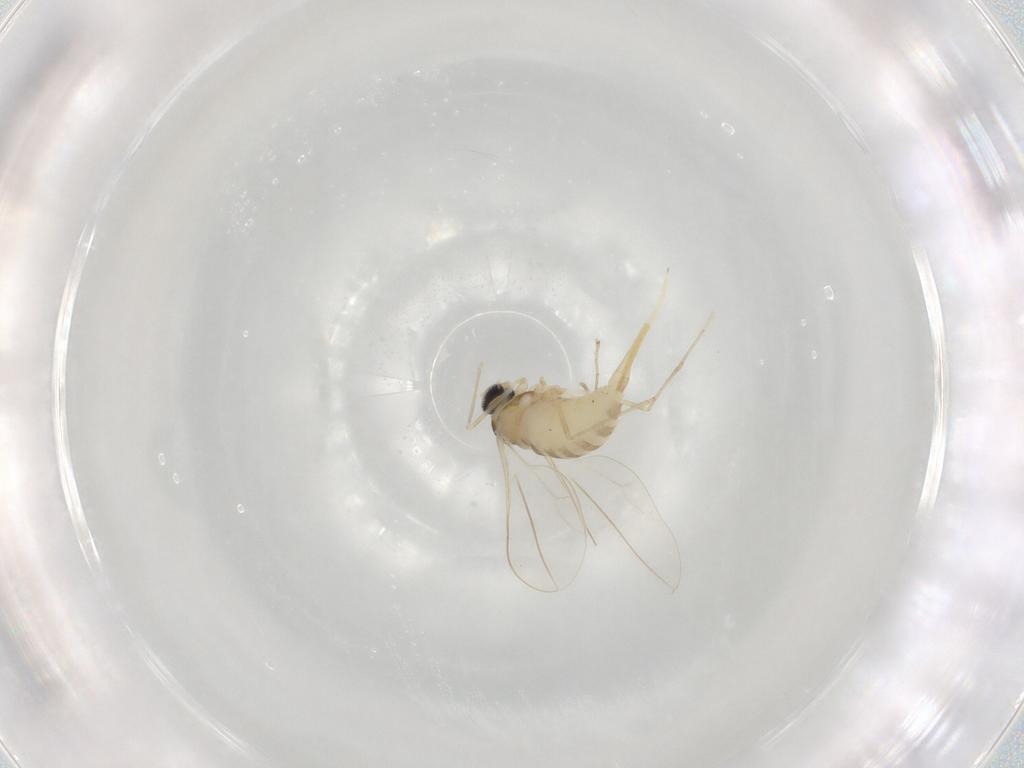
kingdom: Animalia
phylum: Arthropoda
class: Insecta
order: Diptera
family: Cecidomyiidae
